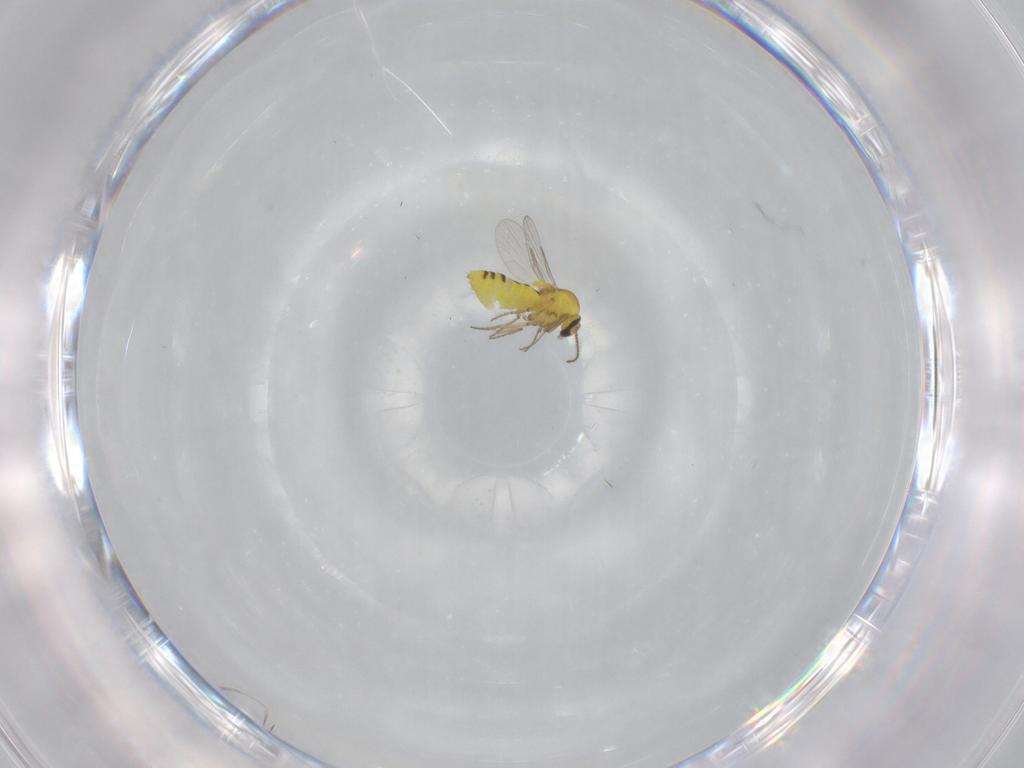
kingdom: Animalia
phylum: Arthropoda
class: Insecta
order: Diptera
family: Ceratopogonidae
